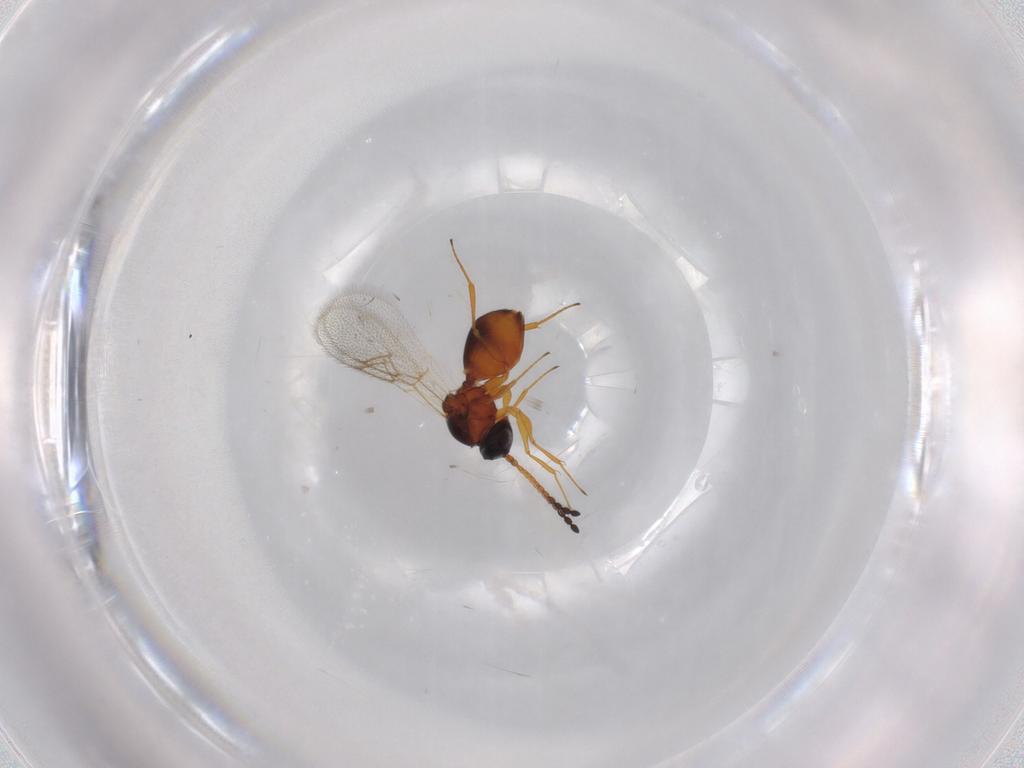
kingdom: Animalia
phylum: Arthropoda
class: Insecta
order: Hymenoptera
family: Figitidae
